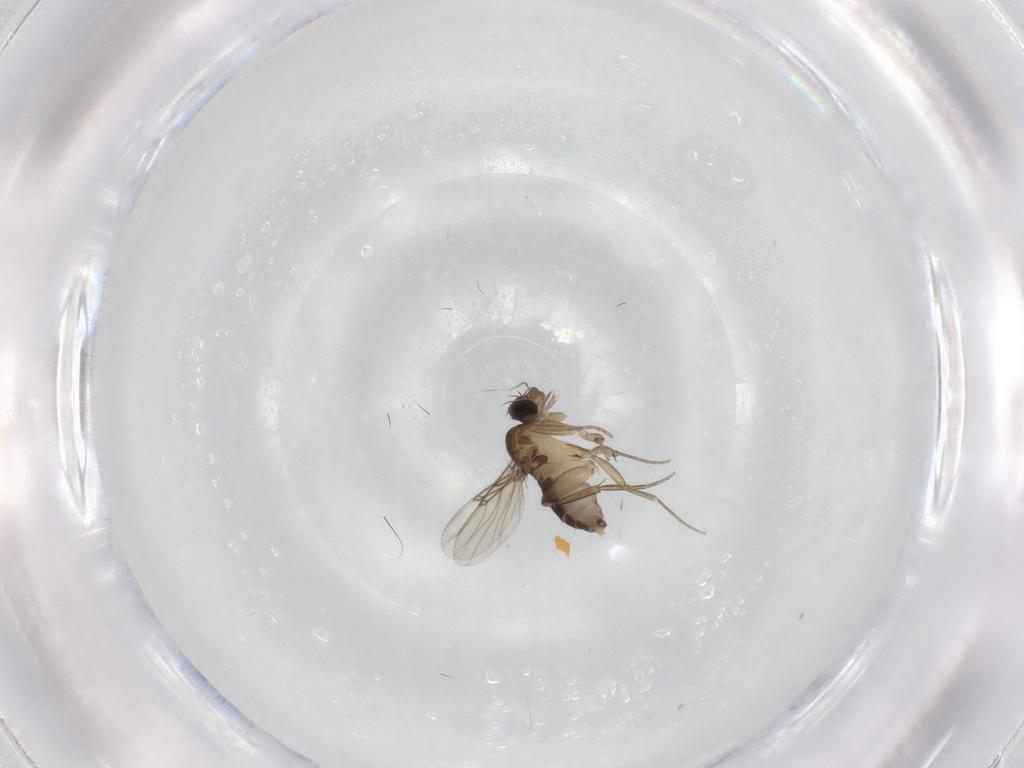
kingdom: Animalia
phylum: Arthropoda
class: Insecta
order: Diptera
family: Phoridae
